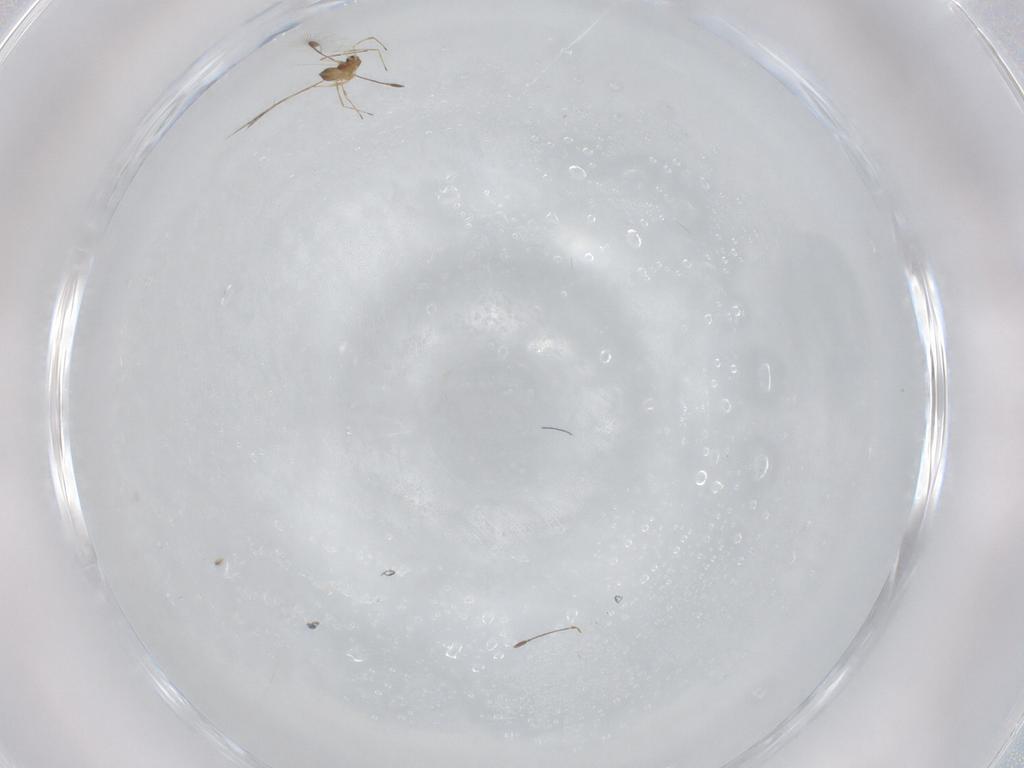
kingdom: Animalia
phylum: Arthropoda
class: Insecta
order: Hymenoptera
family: Mymaridae
